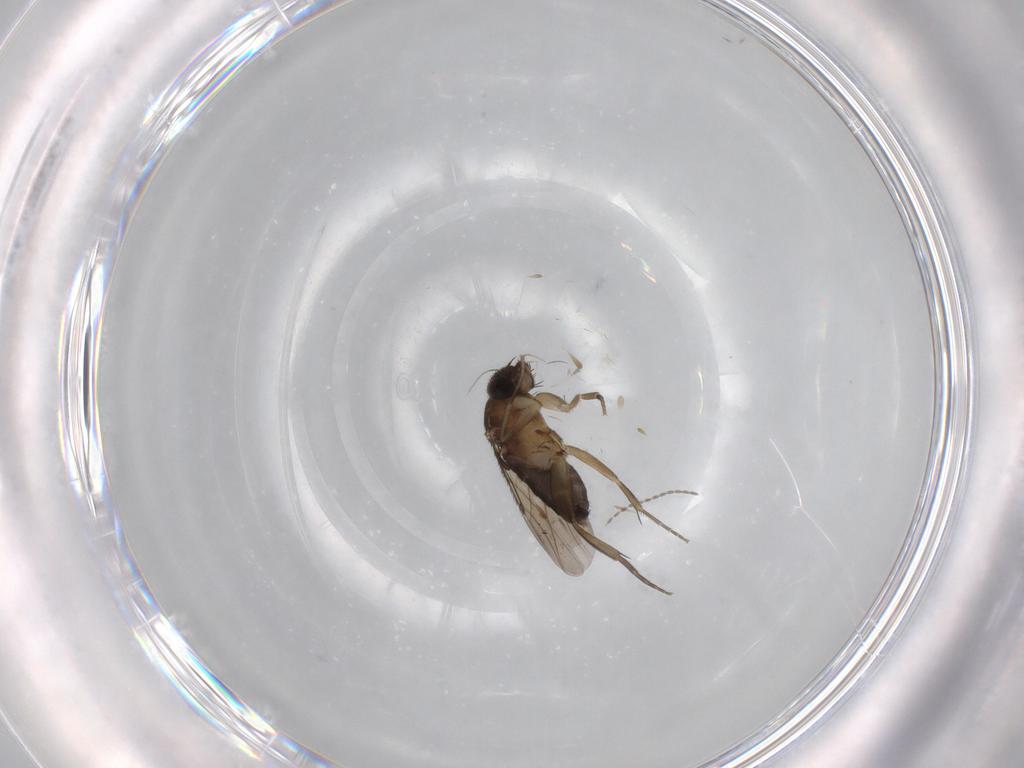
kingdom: Animalia
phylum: Arthropoda
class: Insecta
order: Diptera
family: Phoridae
